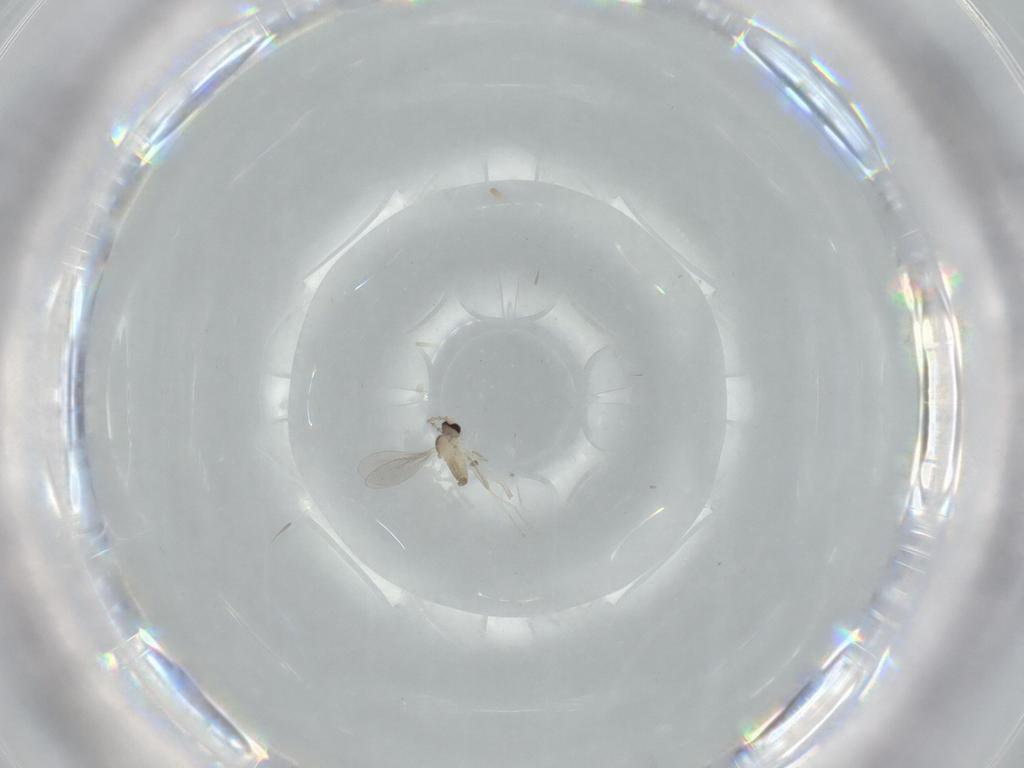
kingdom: Animalia
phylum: Arthropoda
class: Insecta
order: Diptera
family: Cecidomyiidae
